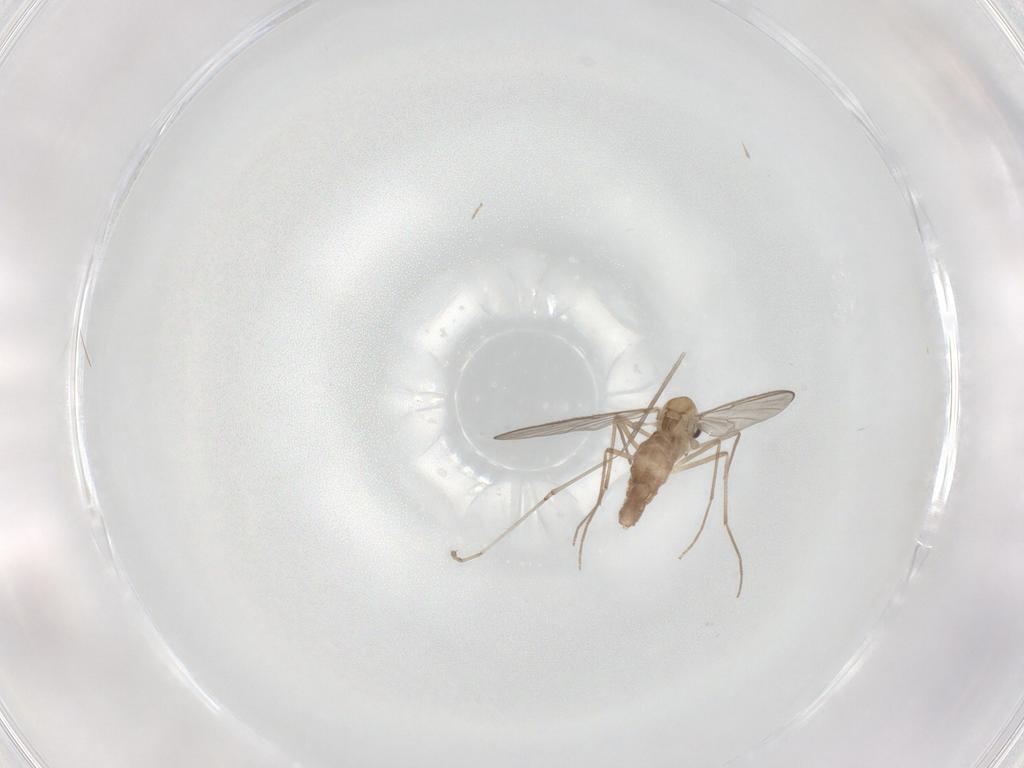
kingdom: Animalia
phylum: Arthropoda
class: Insecta
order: Diptera
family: Chironomidae
